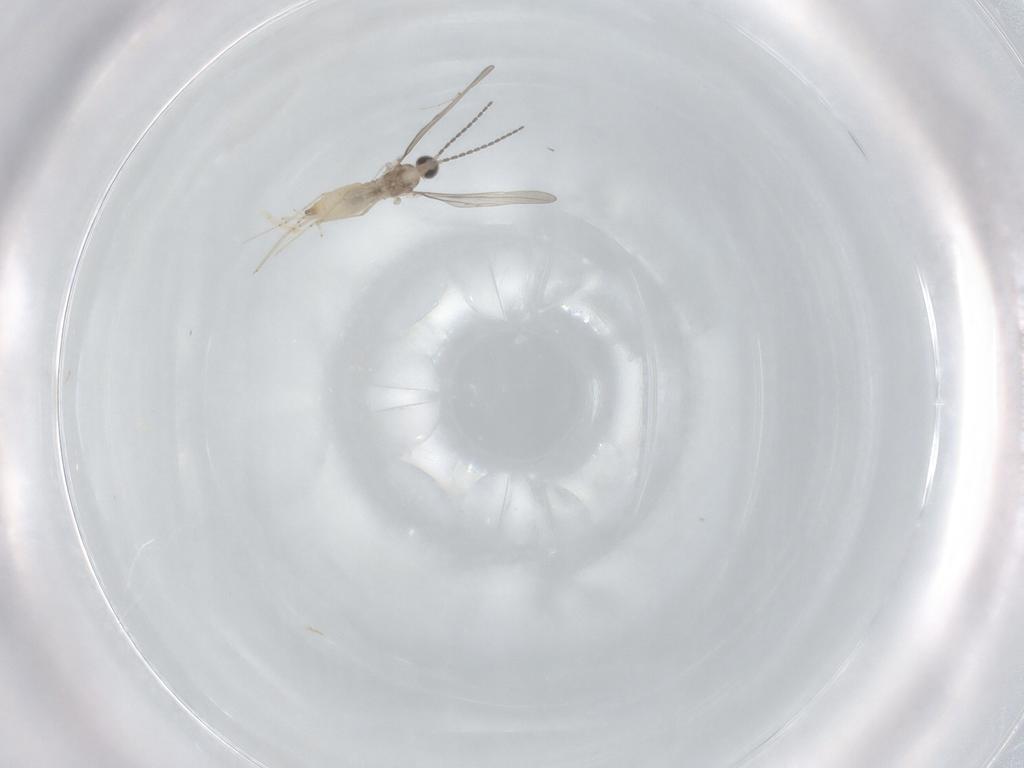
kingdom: Animalia
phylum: Arthropoda
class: Insecta
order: Diptera
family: Cecidomyiidae
